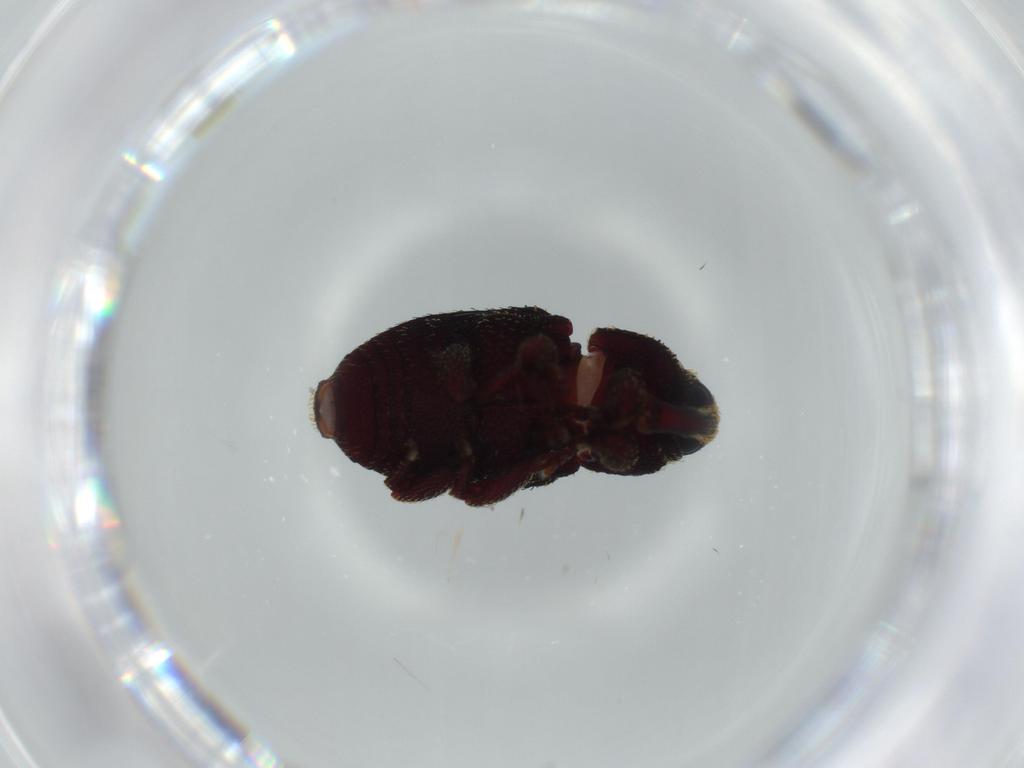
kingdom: Animalia
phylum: Arthropoda
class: Insecta
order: Coleoptera
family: Curculionidae
